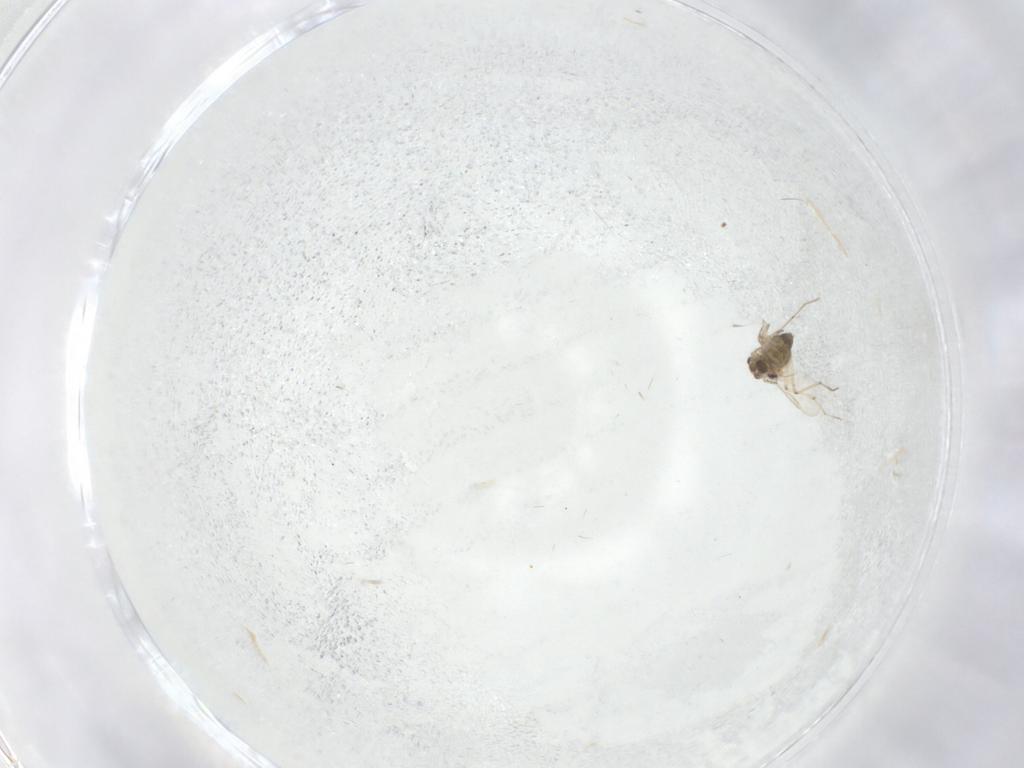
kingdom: Animalia
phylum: Arthropoda
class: Insecta
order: Diptera
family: Chironomidae
